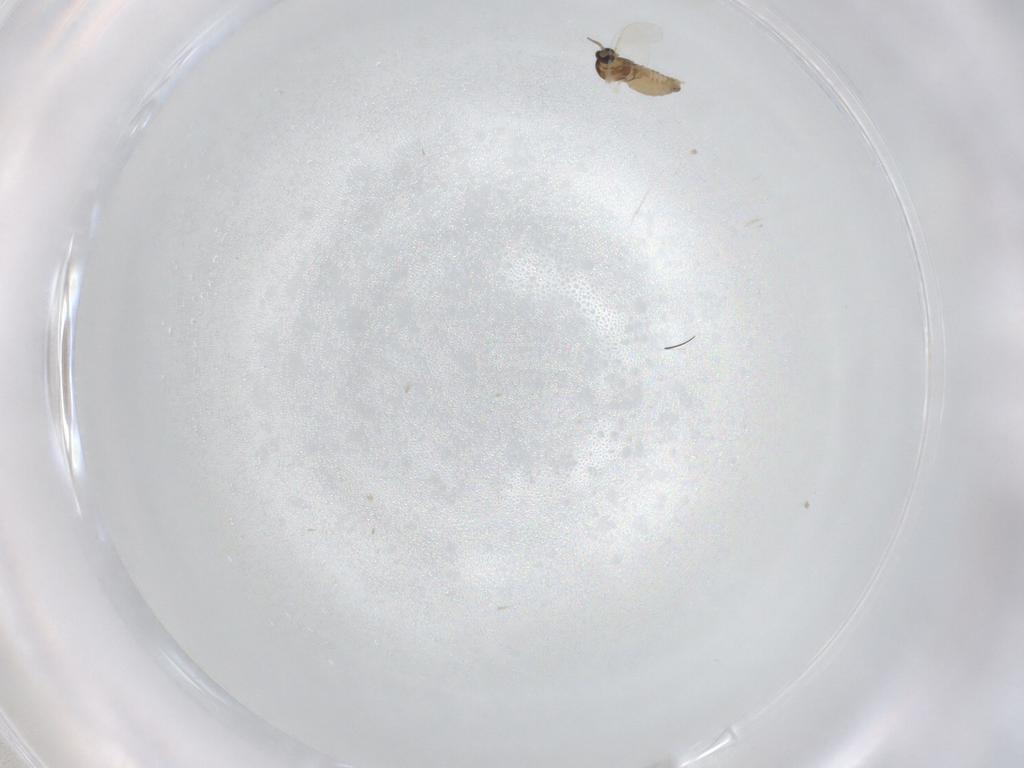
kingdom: Animalia
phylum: Arthropoda
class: Insecta
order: Diptera
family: Cecidomyiidae
